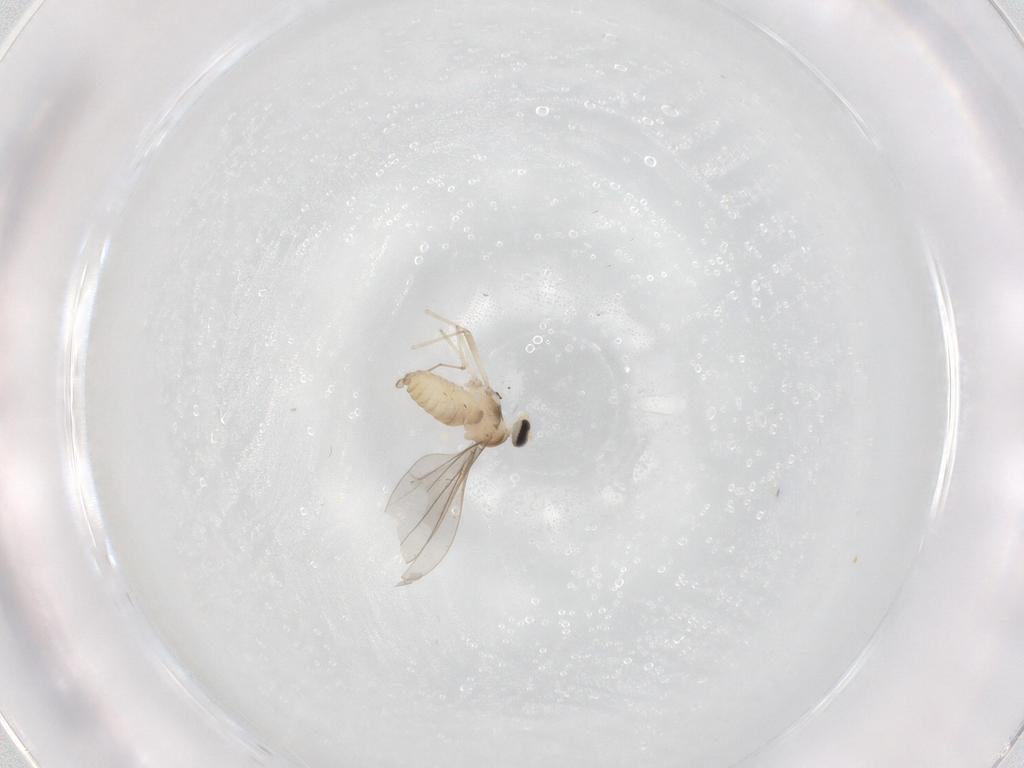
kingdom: Animalia
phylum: Arthropoda
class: Insecta
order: Diptera
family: Cecidomyiidae
